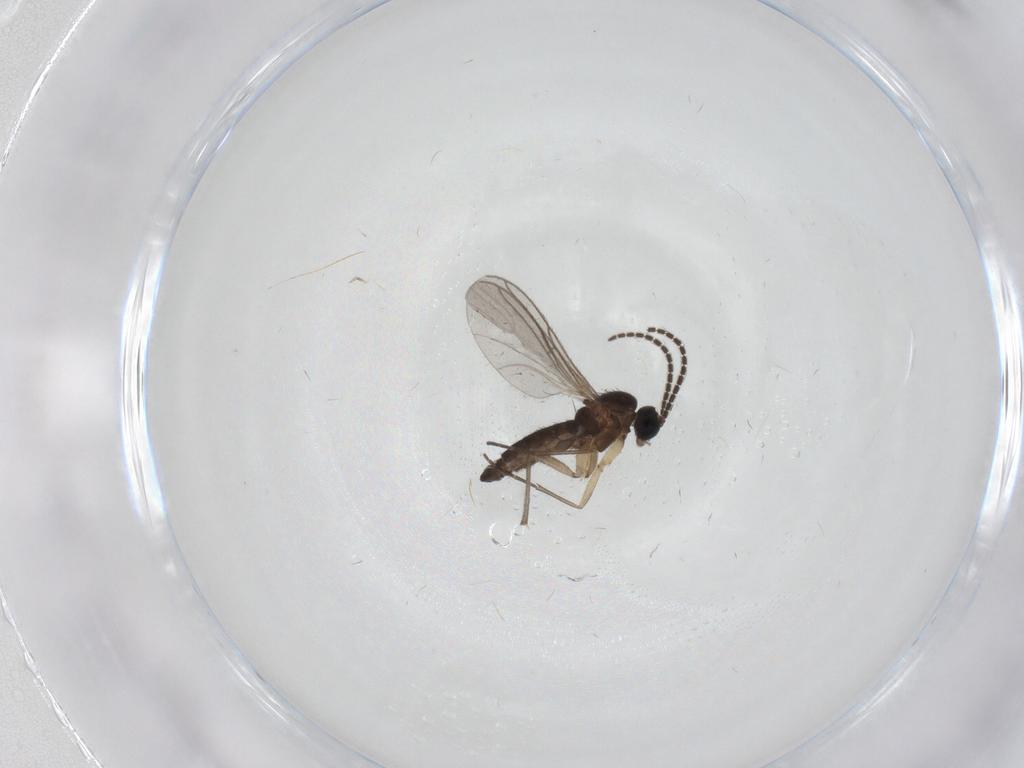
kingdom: Animalia
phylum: Arthropoda
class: Insecta
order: Diptera
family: Sciaridae
